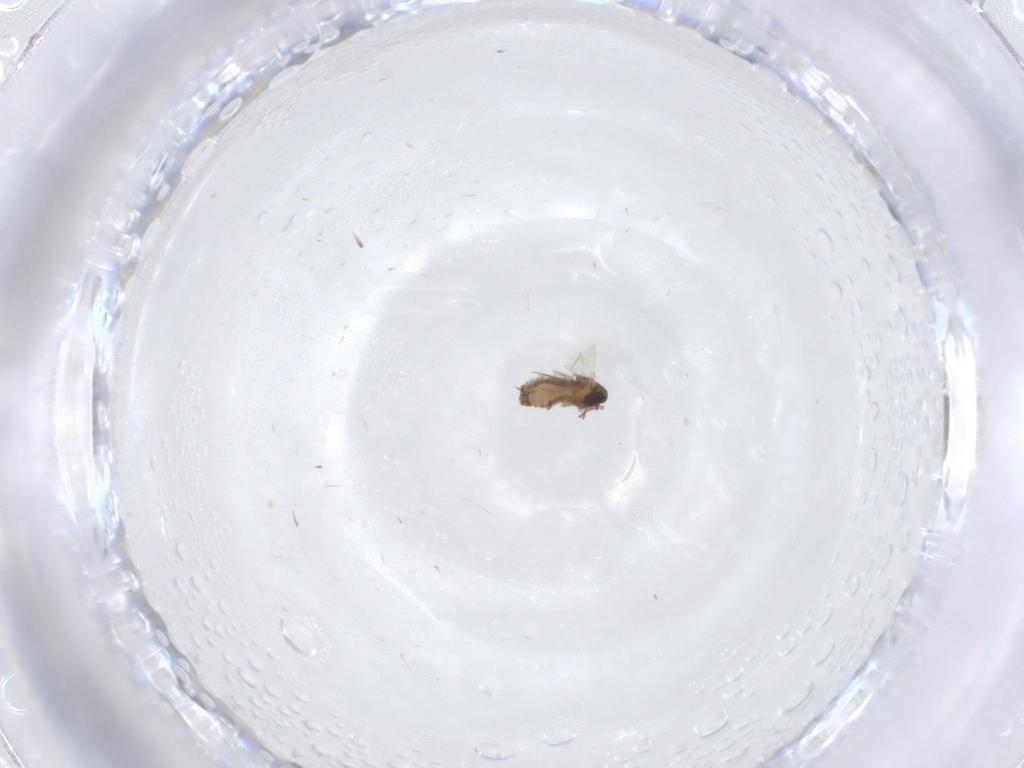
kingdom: Animalia
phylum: Arthropoda
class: Insecta
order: Diptera
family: Psychodidae
